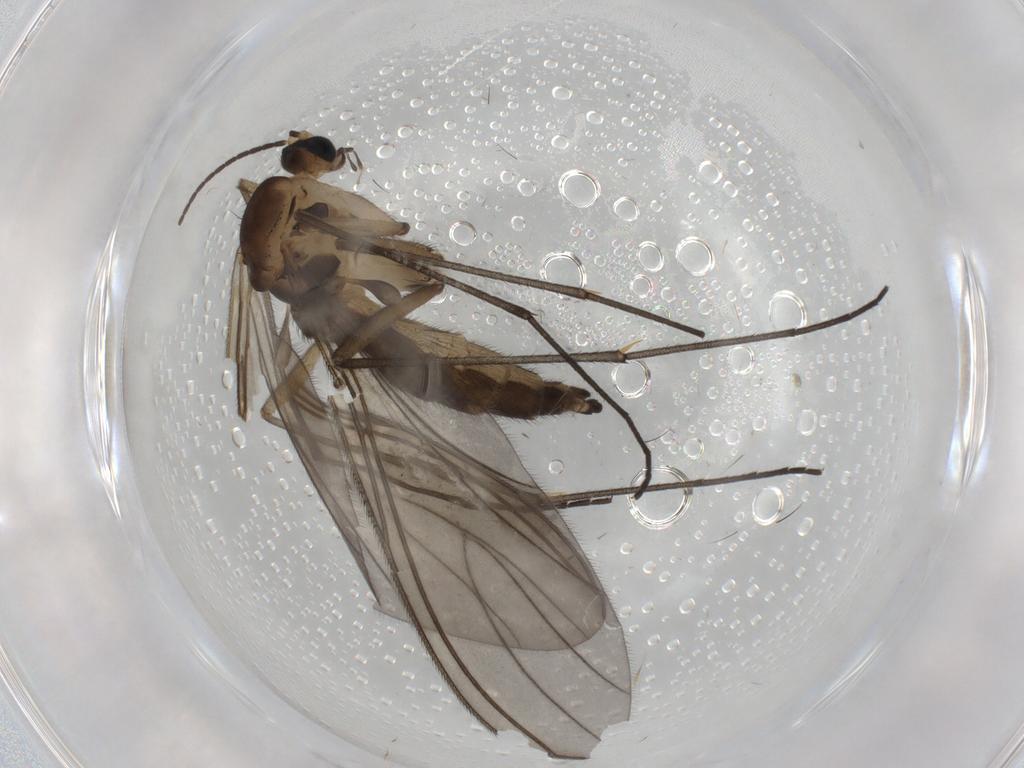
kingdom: Animalia
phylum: Arthropoda
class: Insecta
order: Diptera
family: Sciaridae
